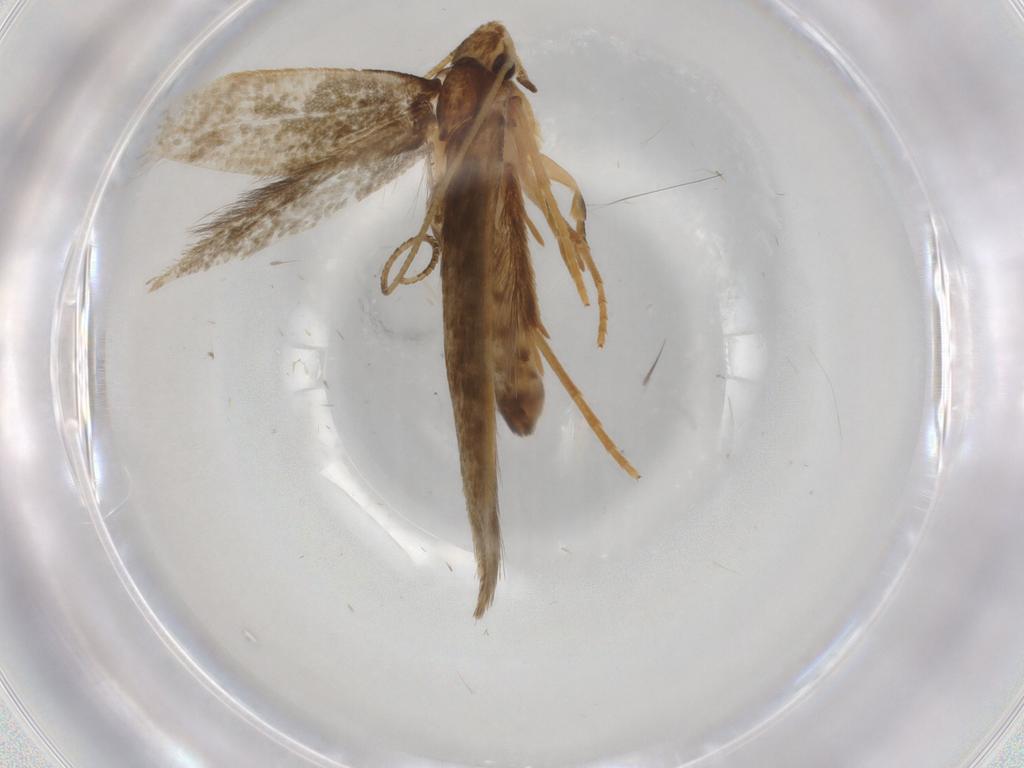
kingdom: Animalia
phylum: Arthropoda
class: Insecta
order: Lepidoptera
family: Tineidae
